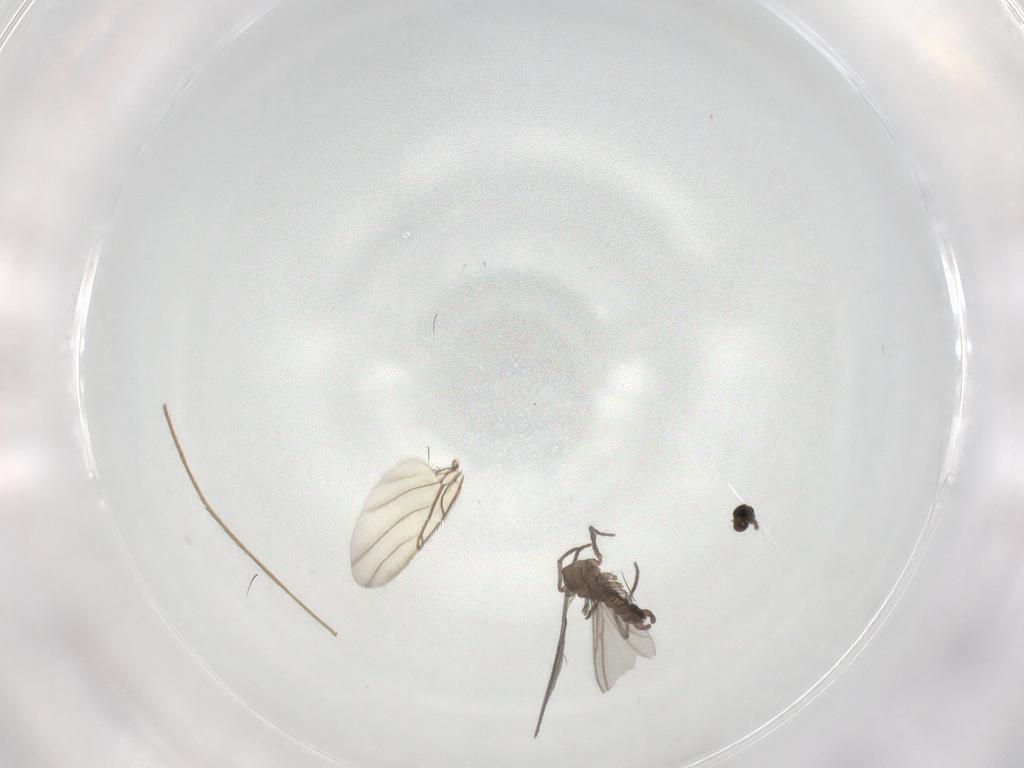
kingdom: Animalia
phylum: Arthropoda
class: Insecta
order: Diptera
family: Sciaridae
